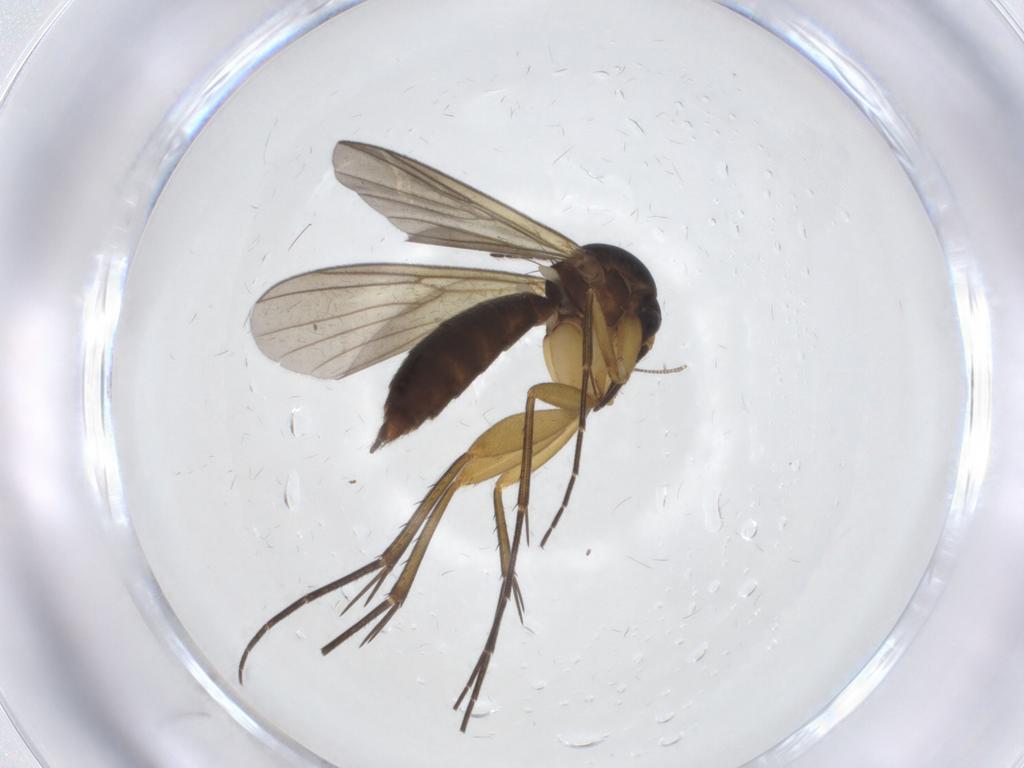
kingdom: Animalia
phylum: Arthropoda
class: Insecta
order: Diptera
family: Mycetophilidae
